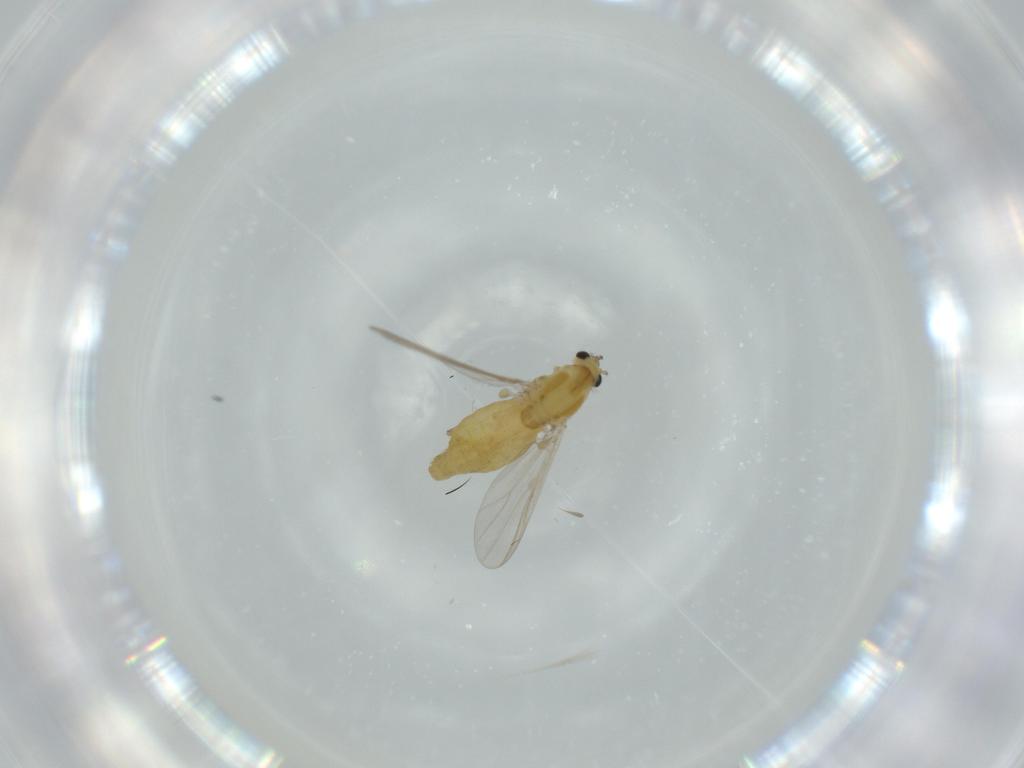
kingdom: Animalia
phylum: Arthropoda
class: Insecta
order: Diptera
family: Chironomidae
